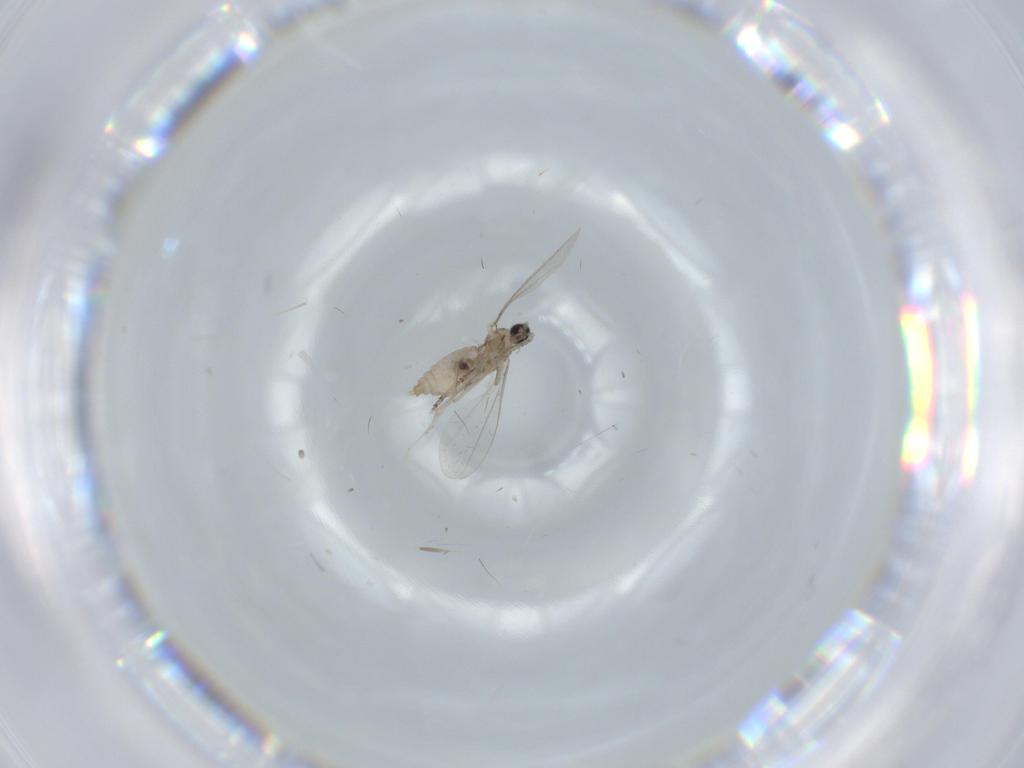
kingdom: Animalia
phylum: Arthropoda
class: Insecta
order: Diptera
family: Cecidomyiidae
